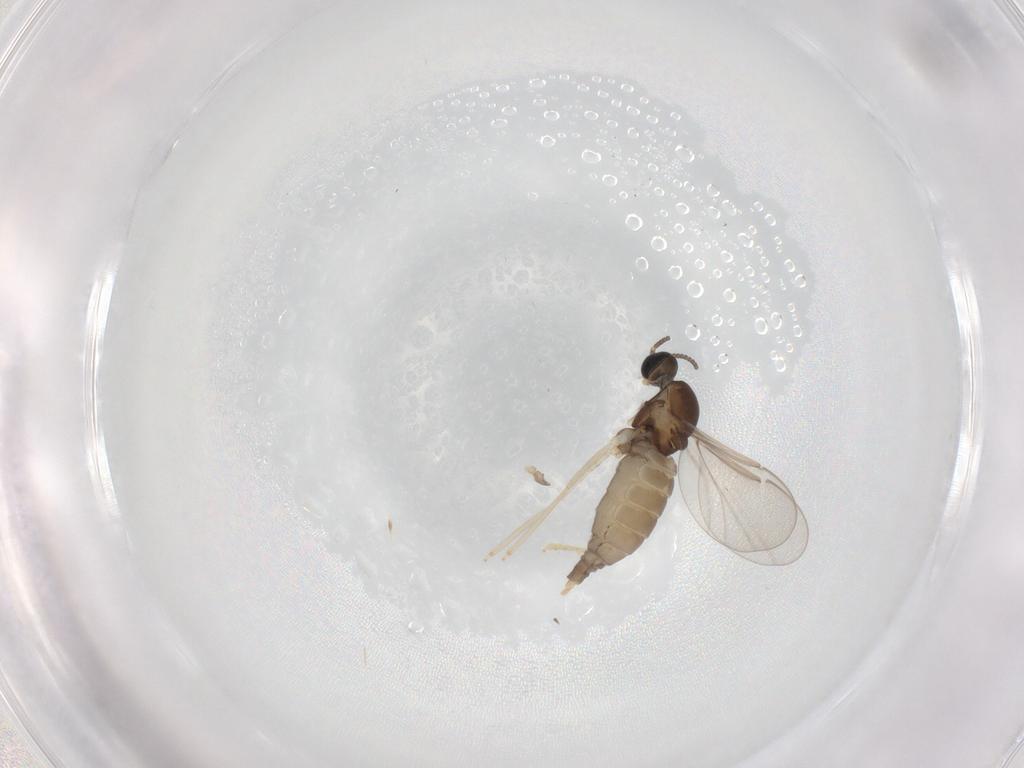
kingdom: Animalia
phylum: Arthropoda
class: Insecta
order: Diptera
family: Cecidomyiidae
